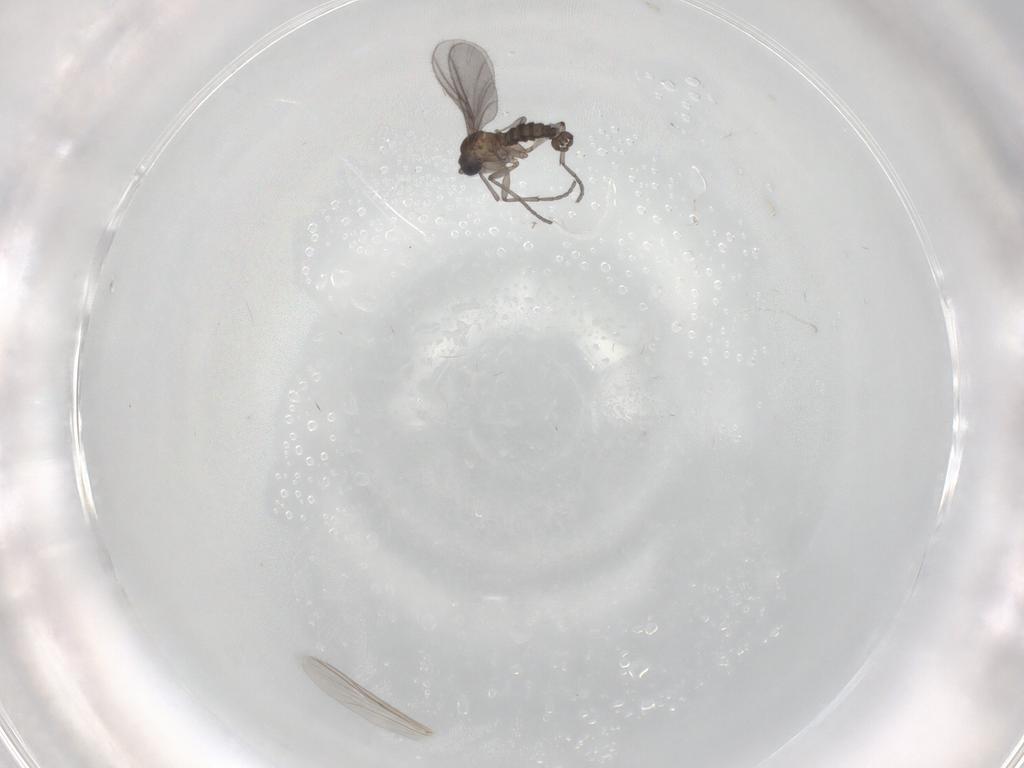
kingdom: Animalia
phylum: Arthropoda
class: Insecta
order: Diptera
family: Sciaridae
